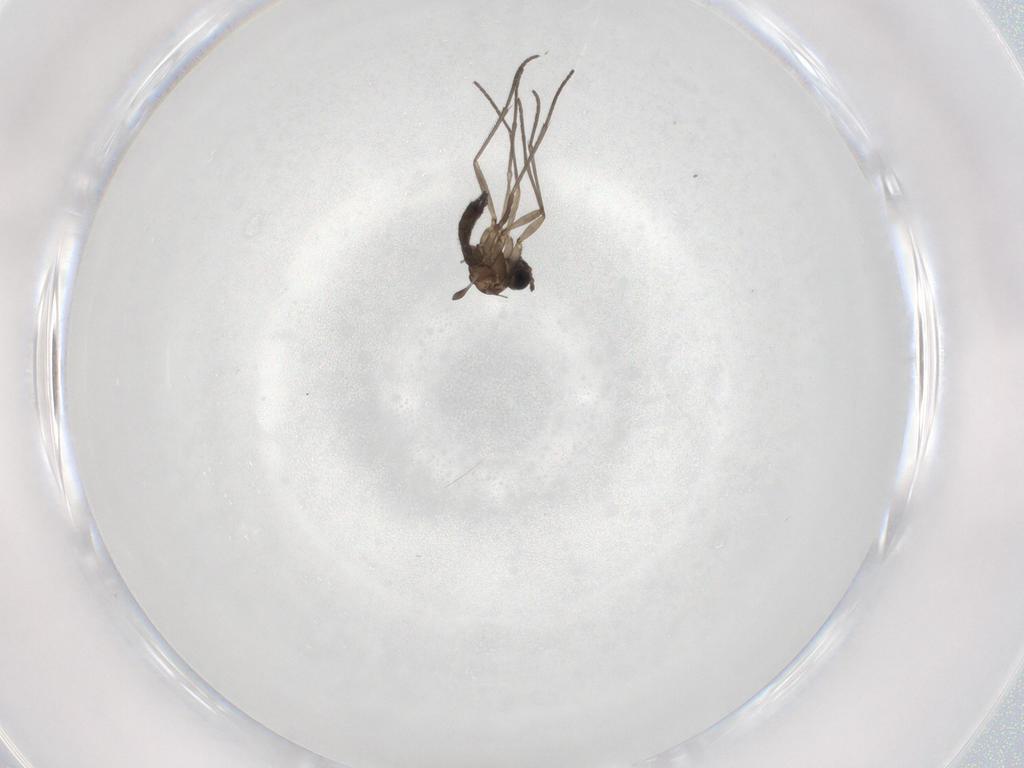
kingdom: Animalia
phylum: Arthropoda
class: Insecta
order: Diptera
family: Sciaridae
